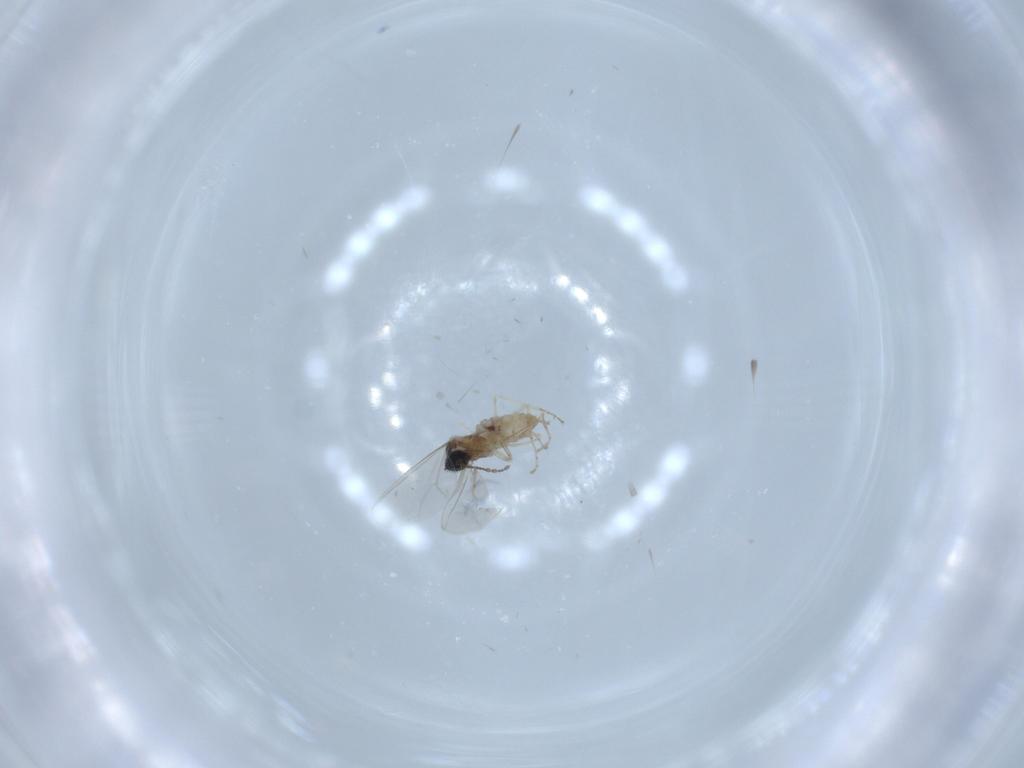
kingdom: Animalia
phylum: Arthropoda
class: Insecta
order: Diptera
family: Cecidomyiidae
